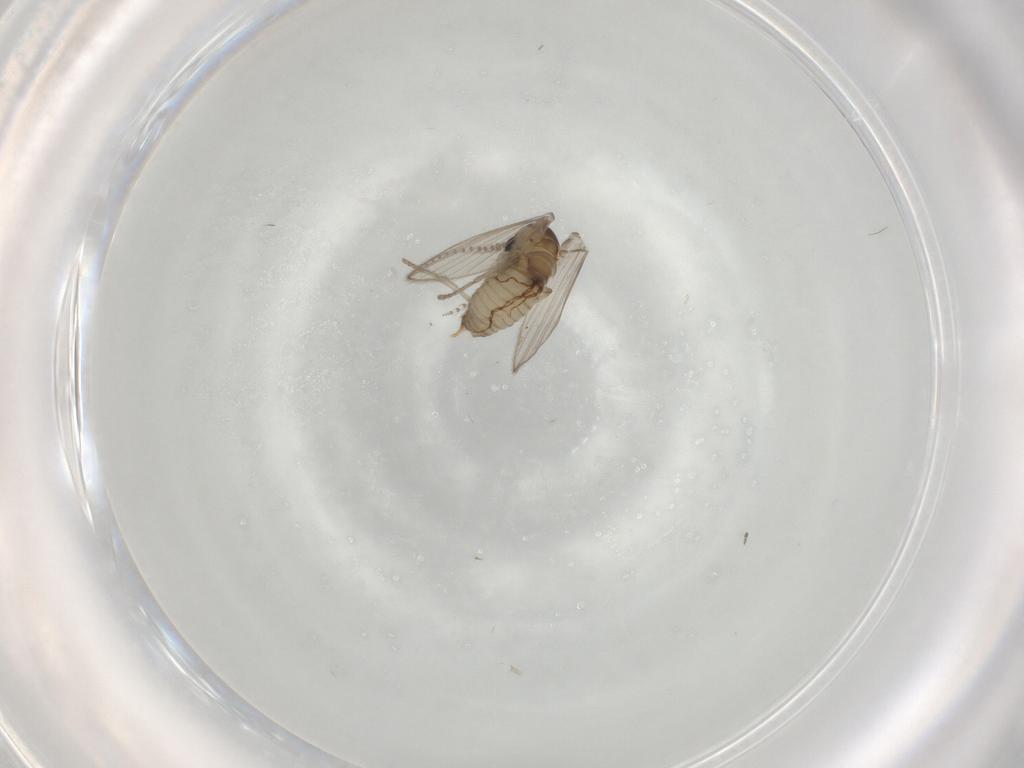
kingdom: Animalia
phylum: Arthropoda
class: Insecta
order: Diptera
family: Psychodidae
